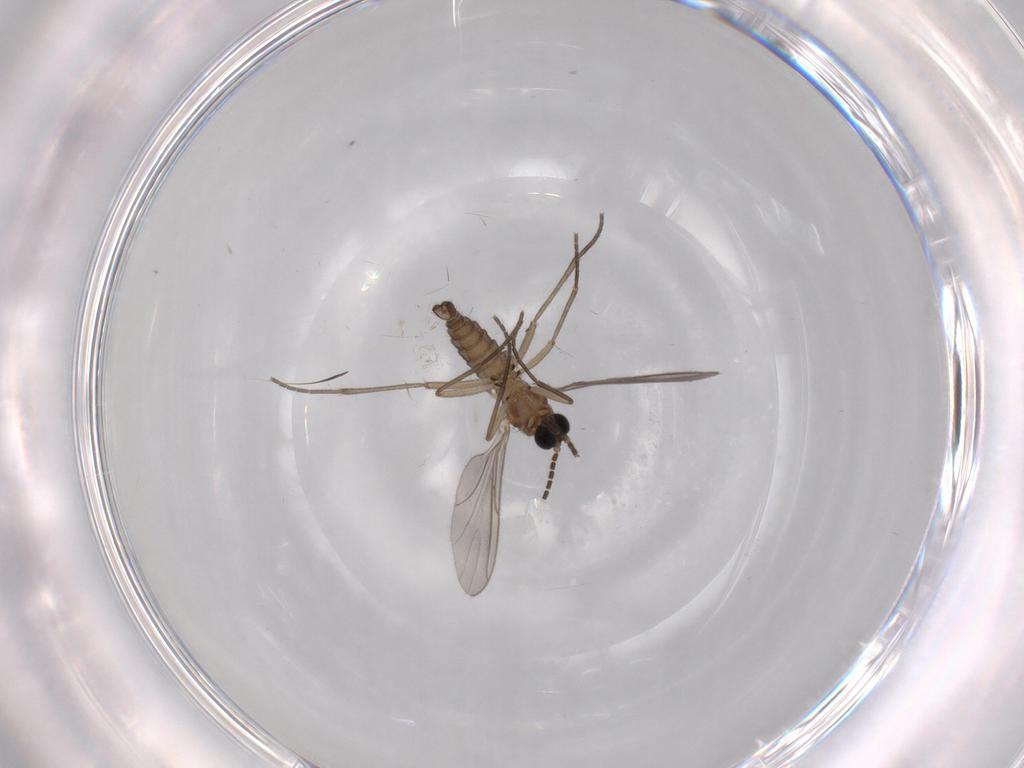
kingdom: Animalia
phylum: Arthropoda
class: Insecta
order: Diptera
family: Sciaridae
